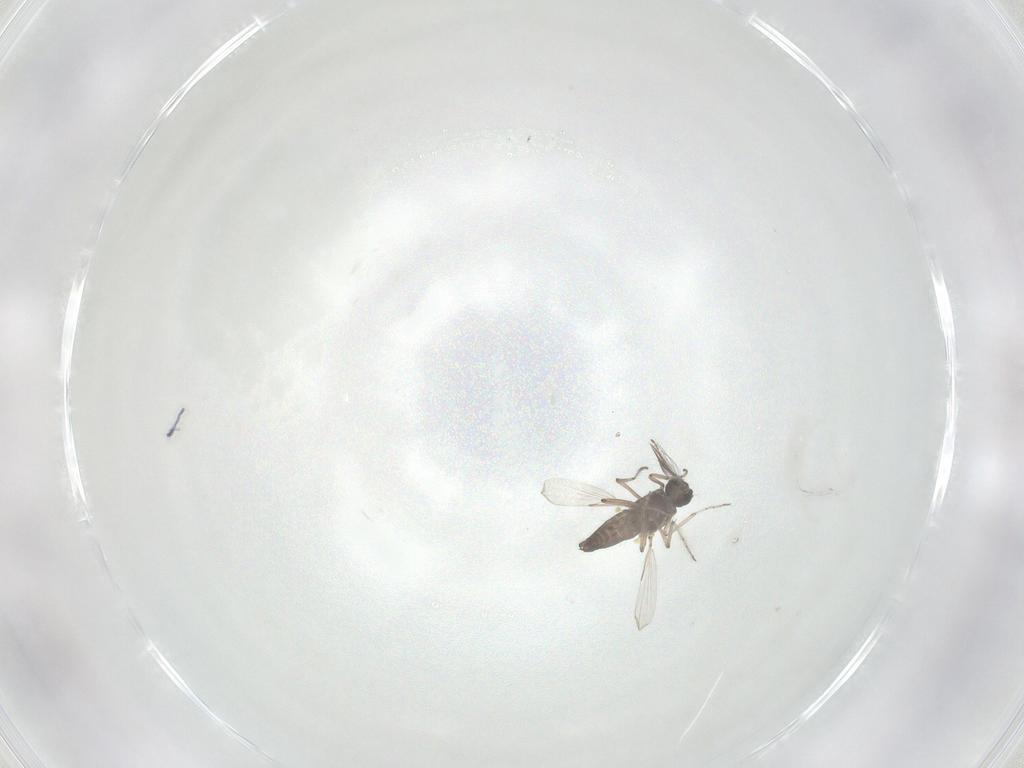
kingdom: Animalia
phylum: Arthropoda
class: Insecta
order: Diptera
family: Ceratopogonidae
